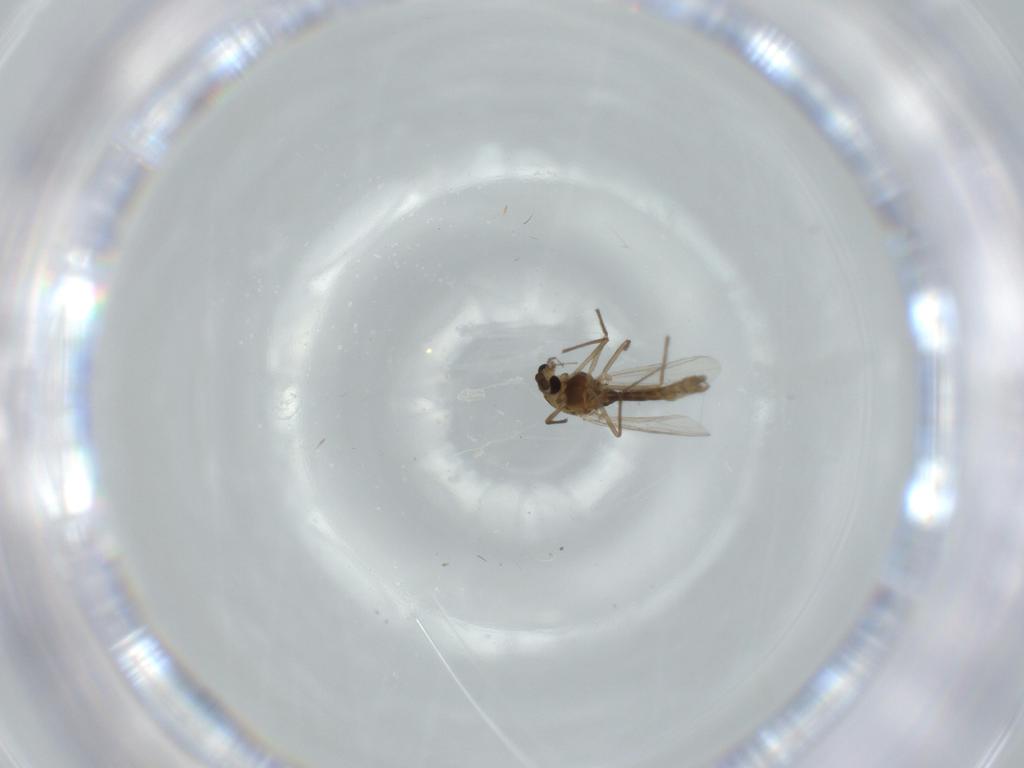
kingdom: Animalia
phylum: Arthropoda
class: Insecta
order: Diptera
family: Chironomidae
